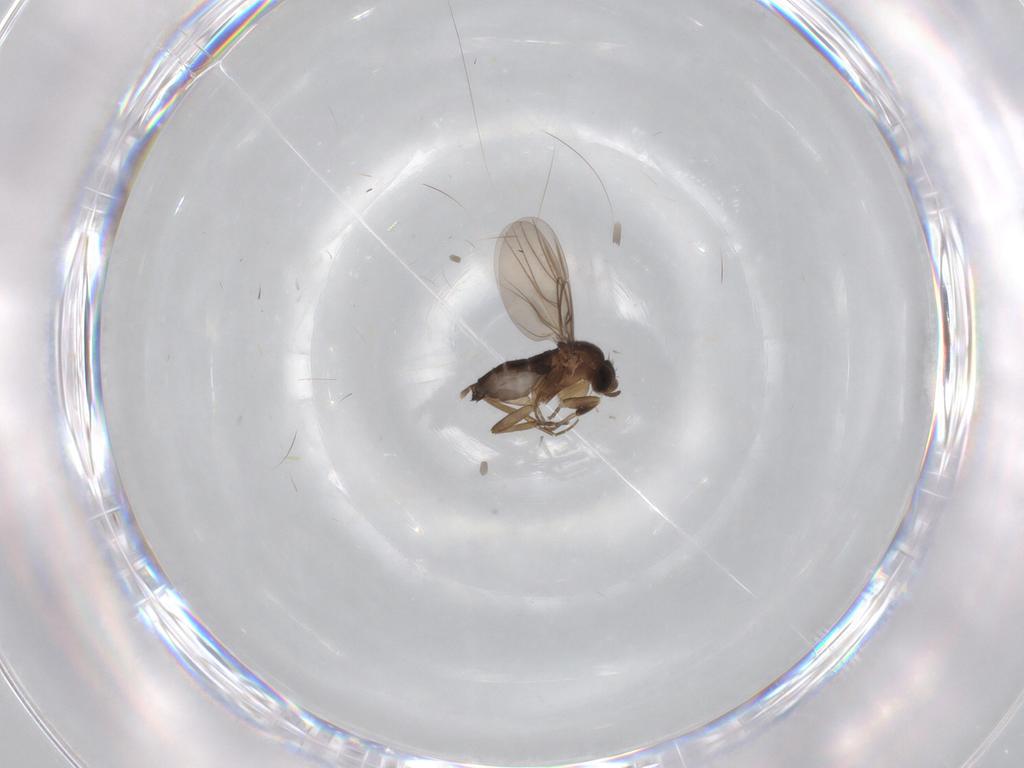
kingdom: Animalia
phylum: Arthropoda
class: Insecta
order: Diptera
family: Phoridae
